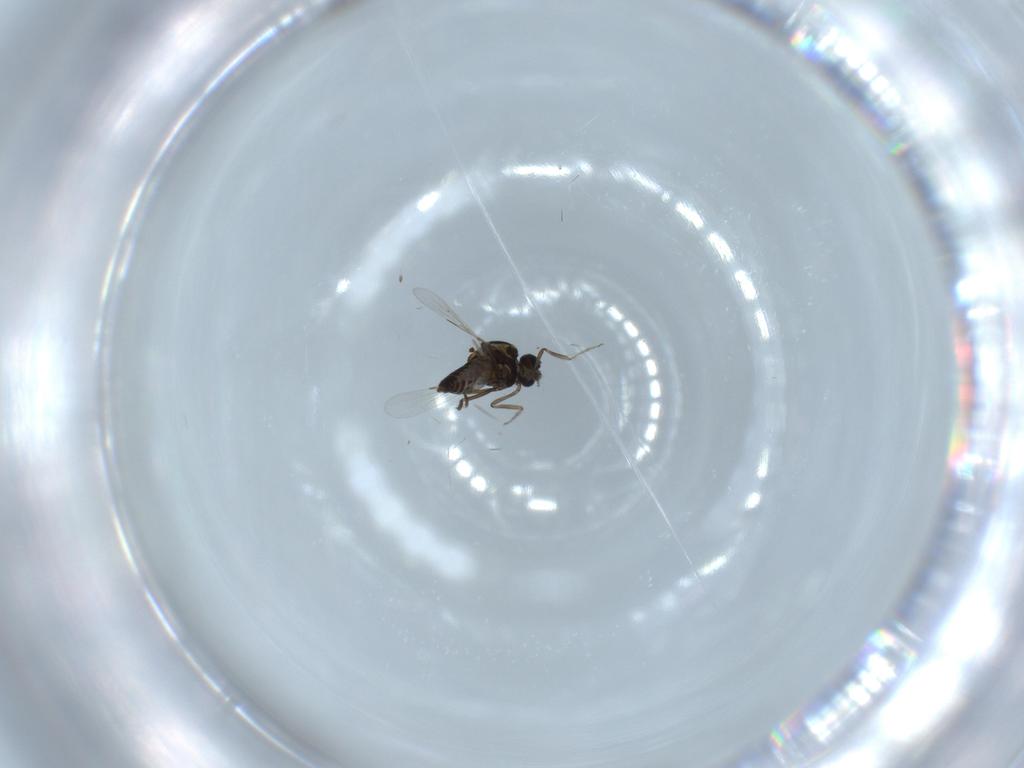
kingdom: Animalia
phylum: Arthropoda
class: Insecta
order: Diptera
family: Ceratopogonidae
